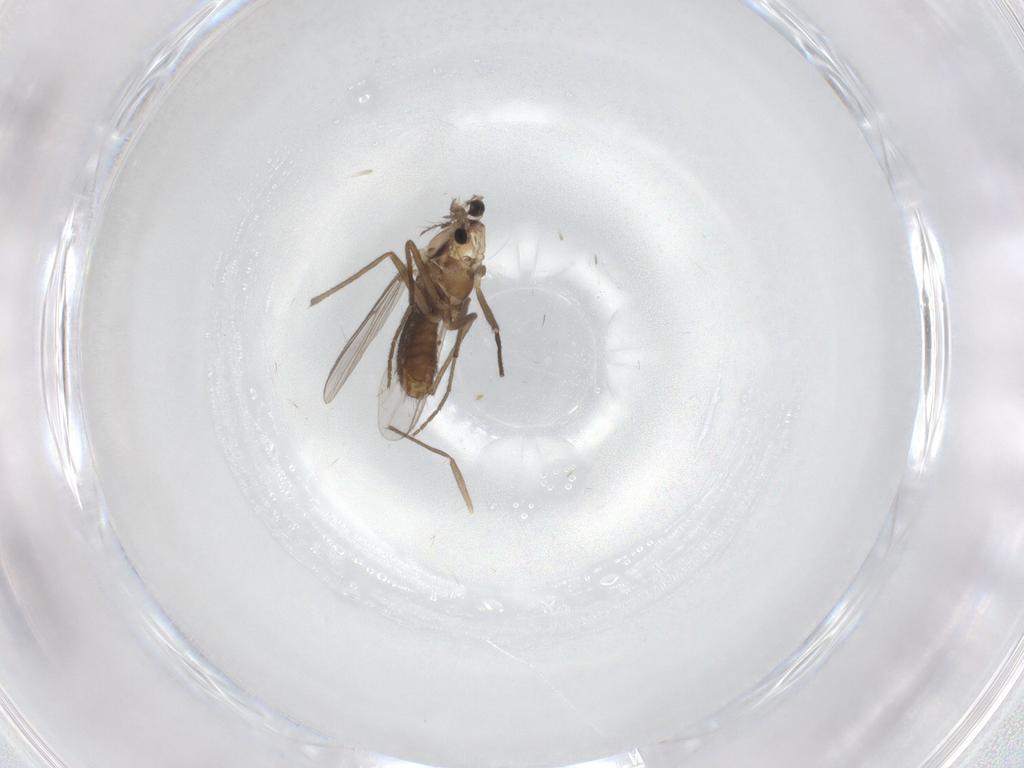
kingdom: Animalia
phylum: Arthropoda
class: Insecta
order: Diptera
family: Chironomidae
